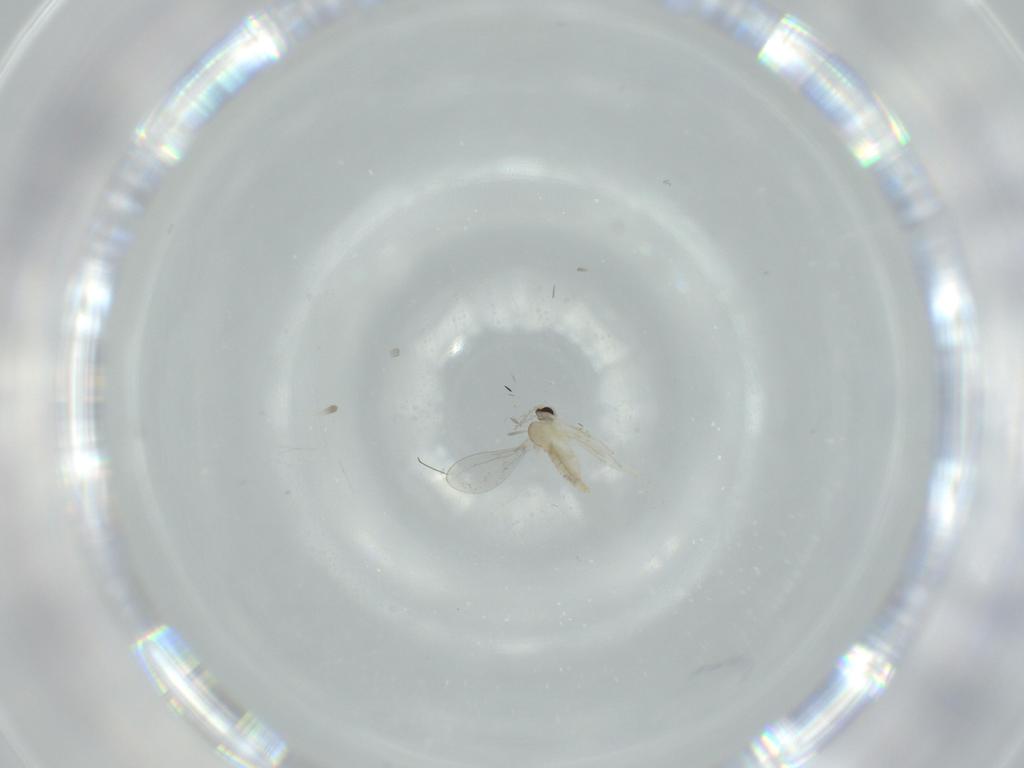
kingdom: Animalia
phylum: Arthropoda
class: Insecta
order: Diptera
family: Cecidomyiidae
